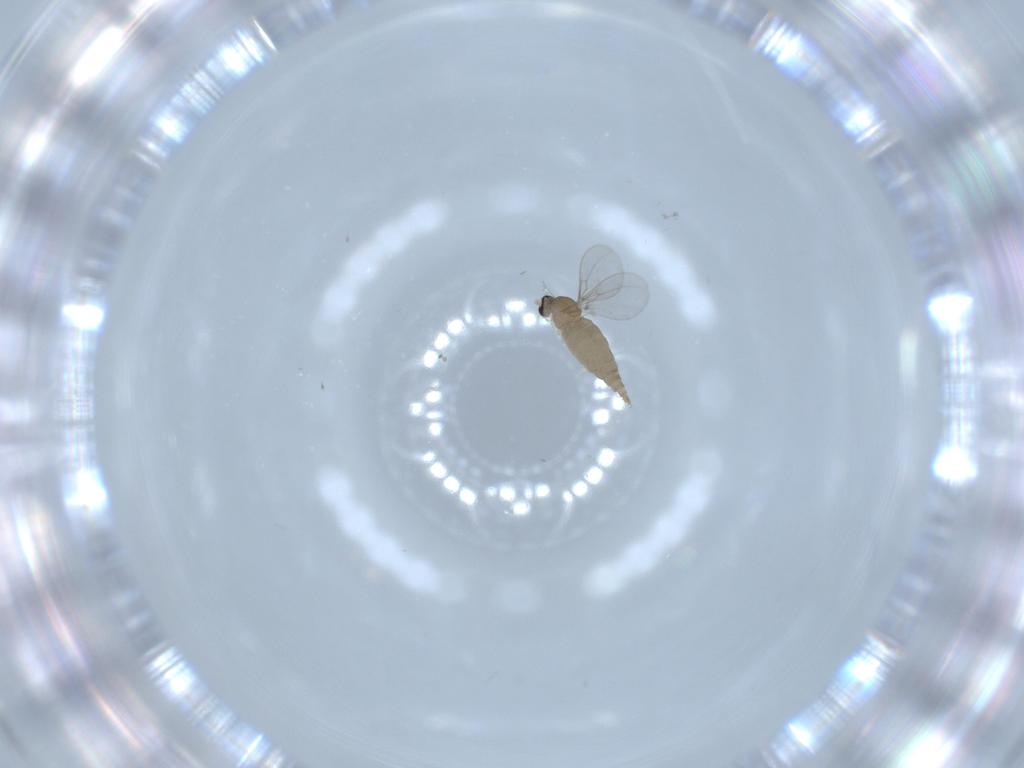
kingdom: Animalia
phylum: Arthropoda
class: Insecta
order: Diptera
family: Cecidomyiidae
